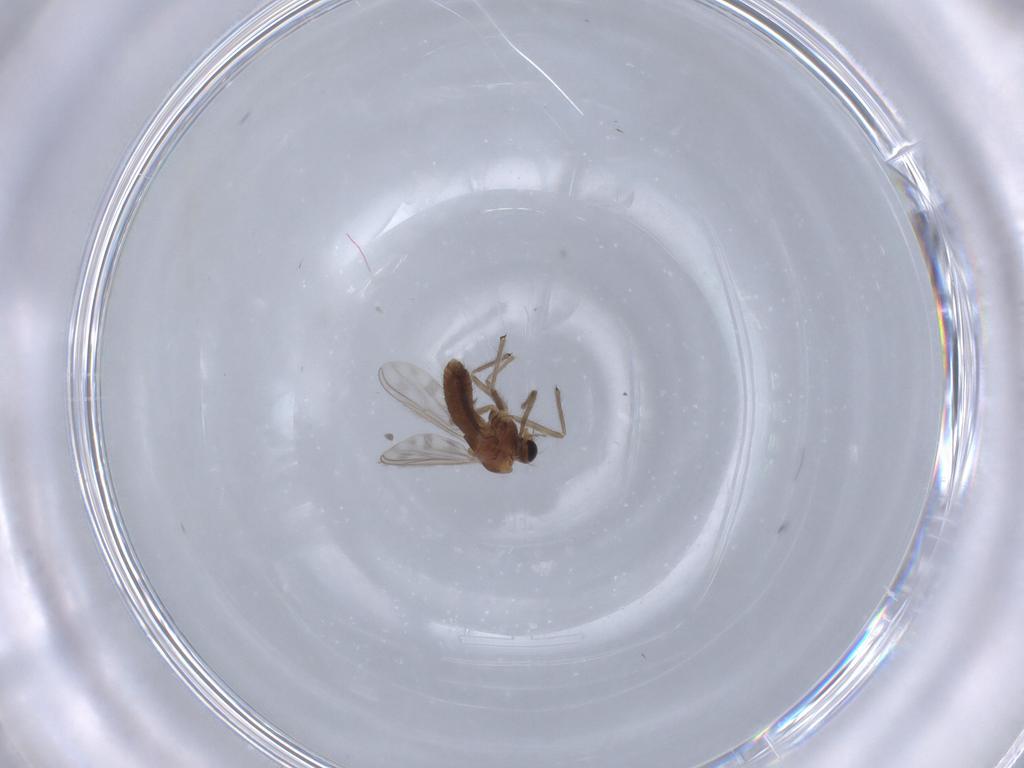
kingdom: Animalia
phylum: Arthropoda
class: Insecta
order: Diptera
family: Chironomidae
